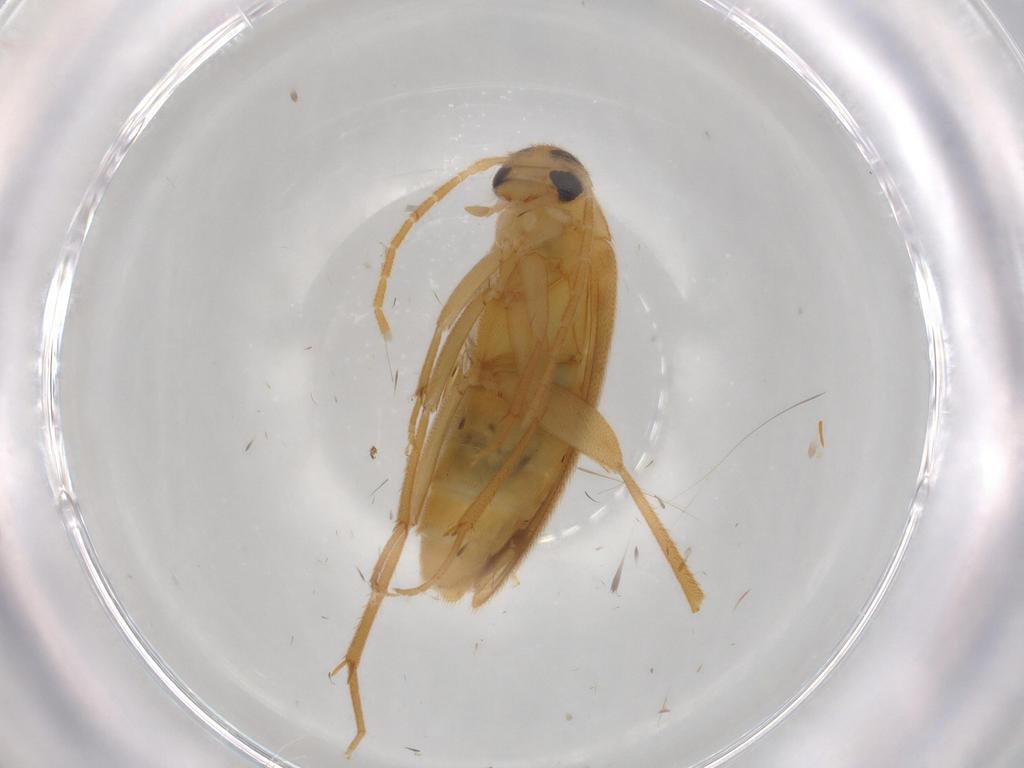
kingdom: Animalia
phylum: Arthropoda
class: Insecta
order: Coleoptera
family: Scraptiidae
